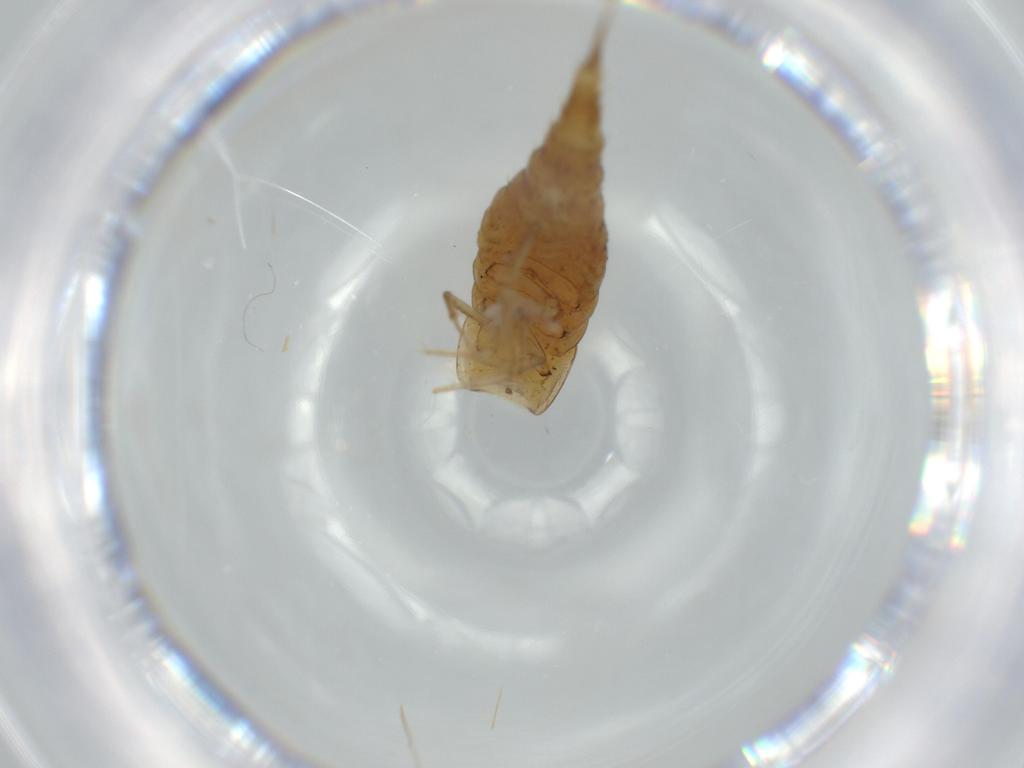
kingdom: Animalia
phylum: Arthropoda
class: Insecta
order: Coleoptera
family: Dytiscidae
